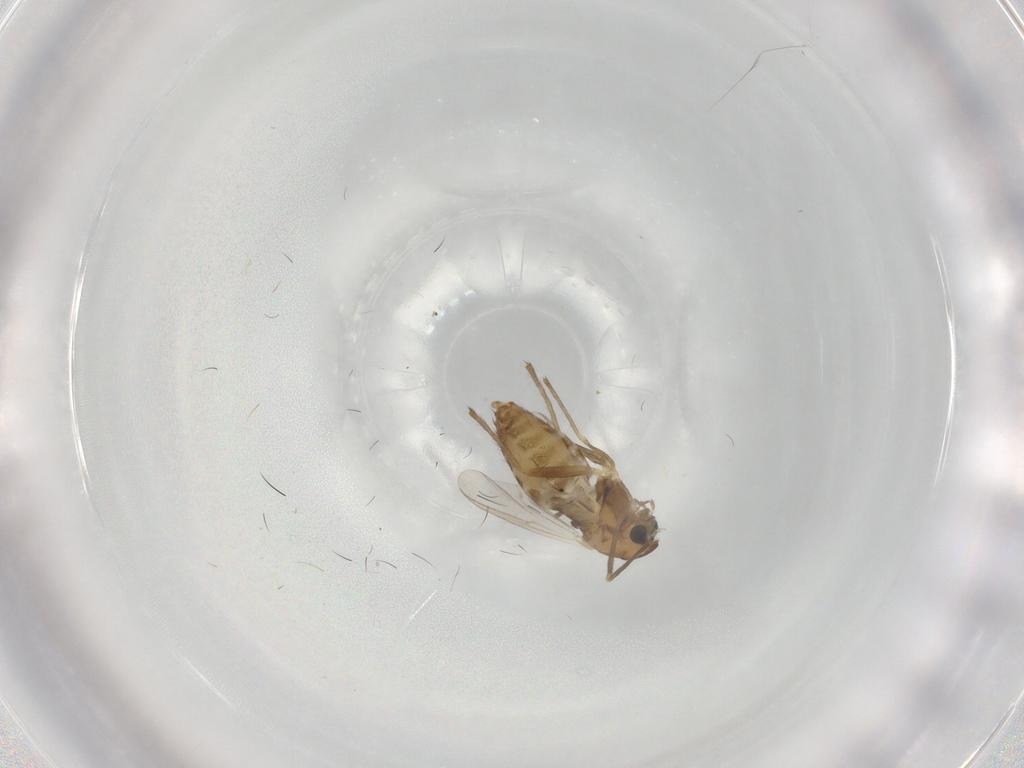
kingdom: Animalia
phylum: Arthropoda
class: Insecta
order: Diptera
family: Chironomidae
